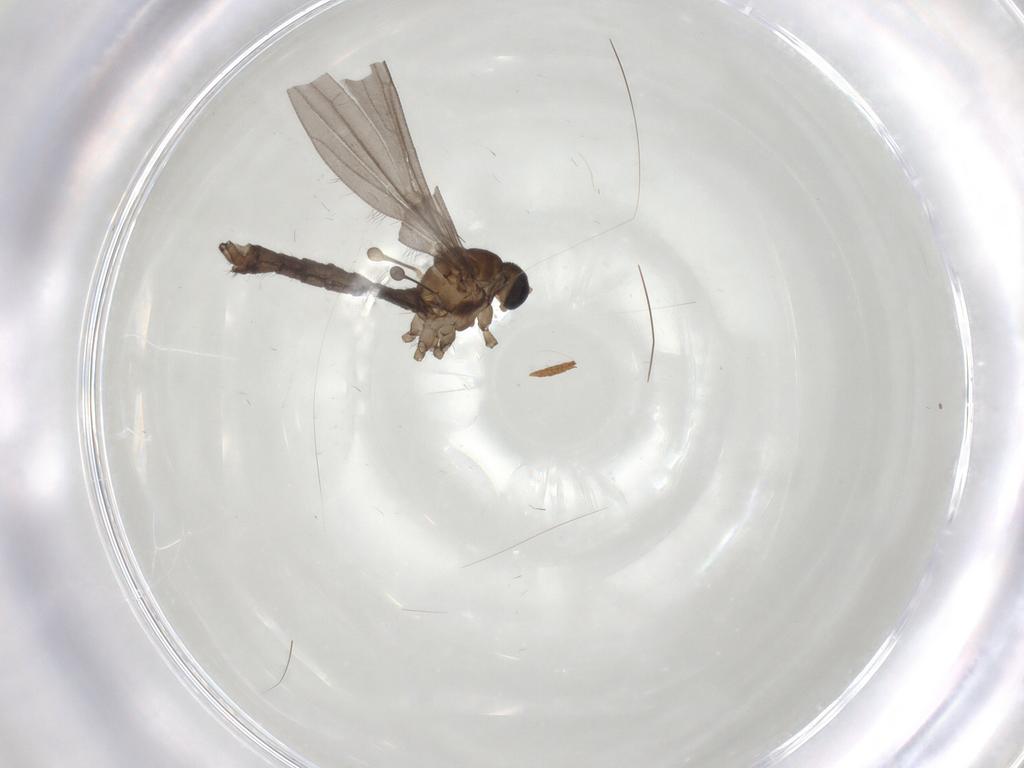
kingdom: Animalia
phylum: Arthropoda
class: Insecta
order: Diptera
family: Limoniidae
